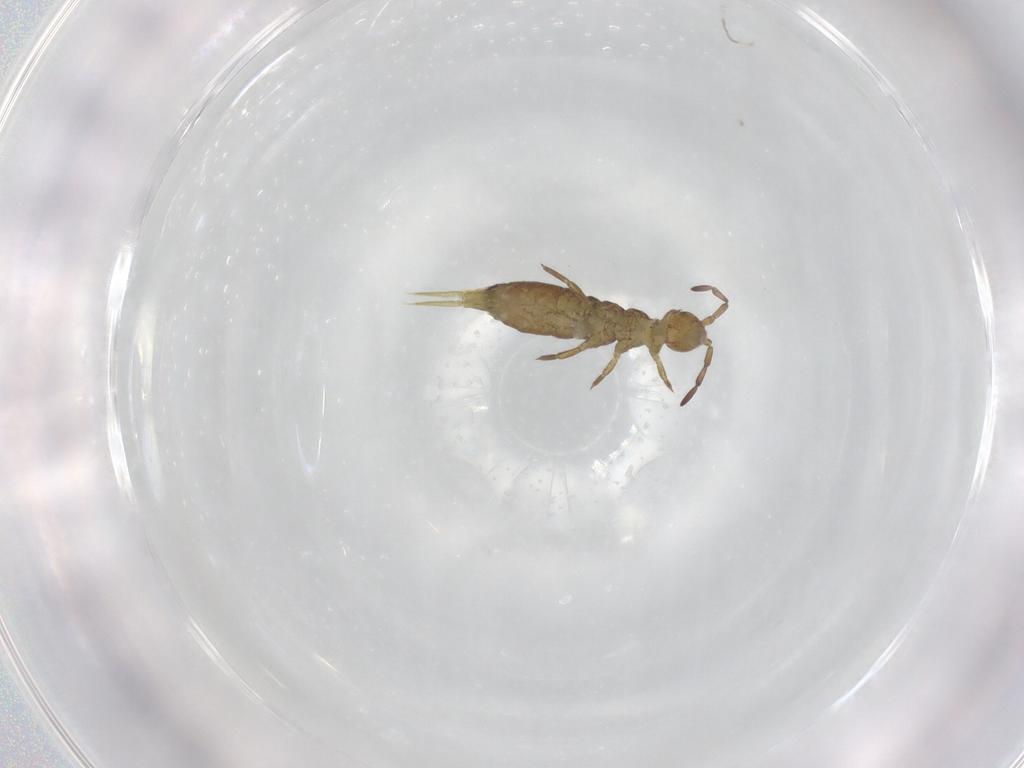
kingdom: Animalia
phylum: Arthropoda
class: Collembola
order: Entomobryomorpha
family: Isotomidae
